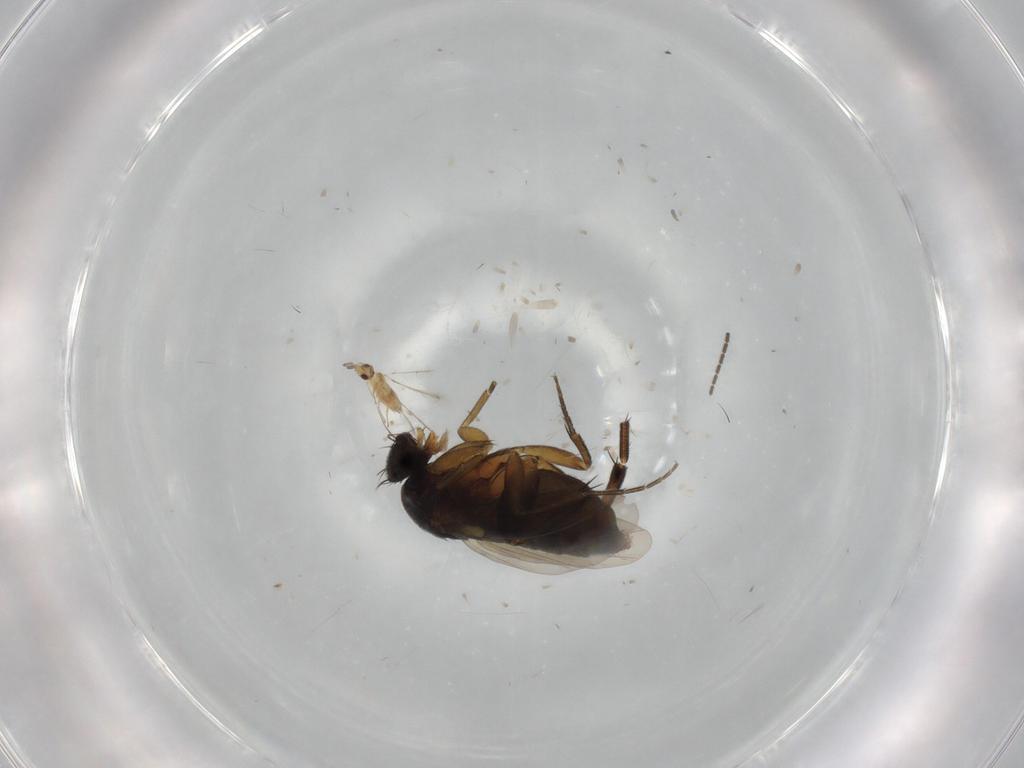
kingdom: Animalia
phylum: Arthropoda
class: Insecta
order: Diptera
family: Phoridae
